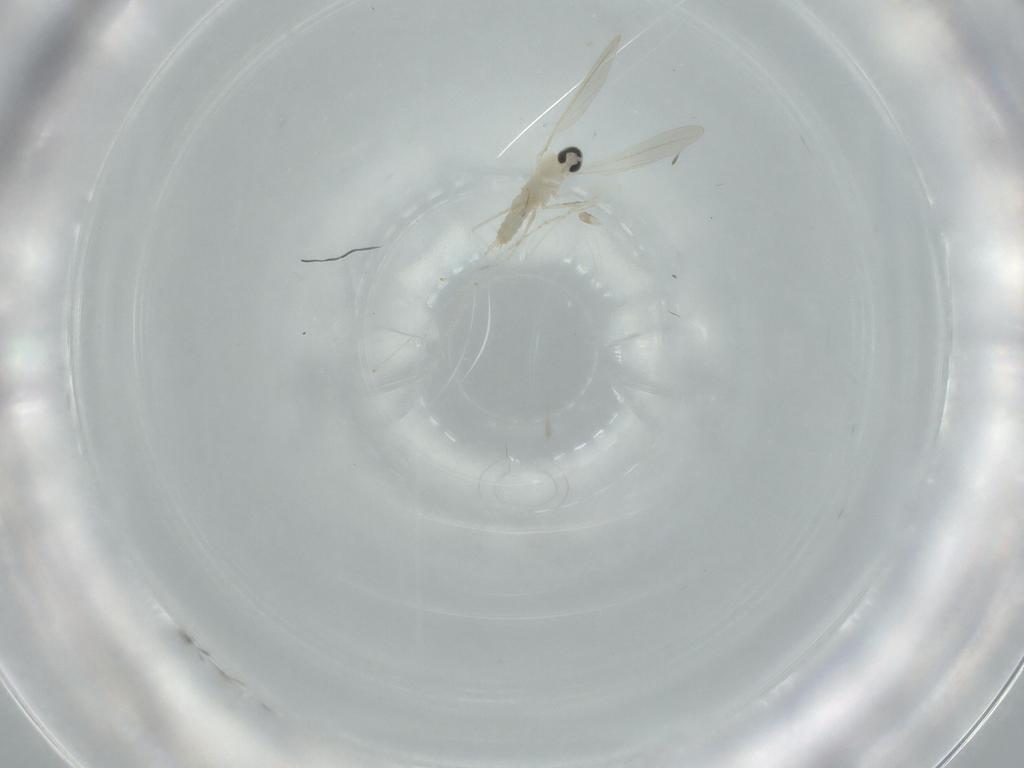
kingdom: Animalia
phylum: Arthropoda
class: Insecta
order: Diptera
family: Cecidomyiidae
